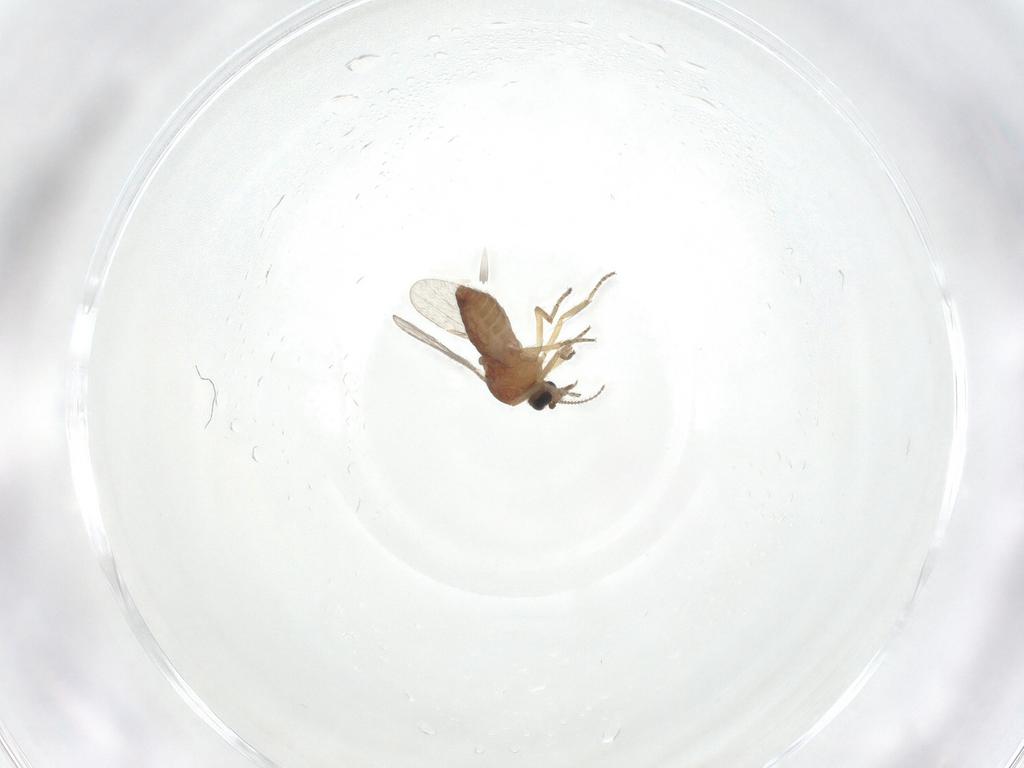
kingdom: Animalia
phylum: Arthropoda
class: Insecta
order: Diptera
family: Ceratopogonidae
